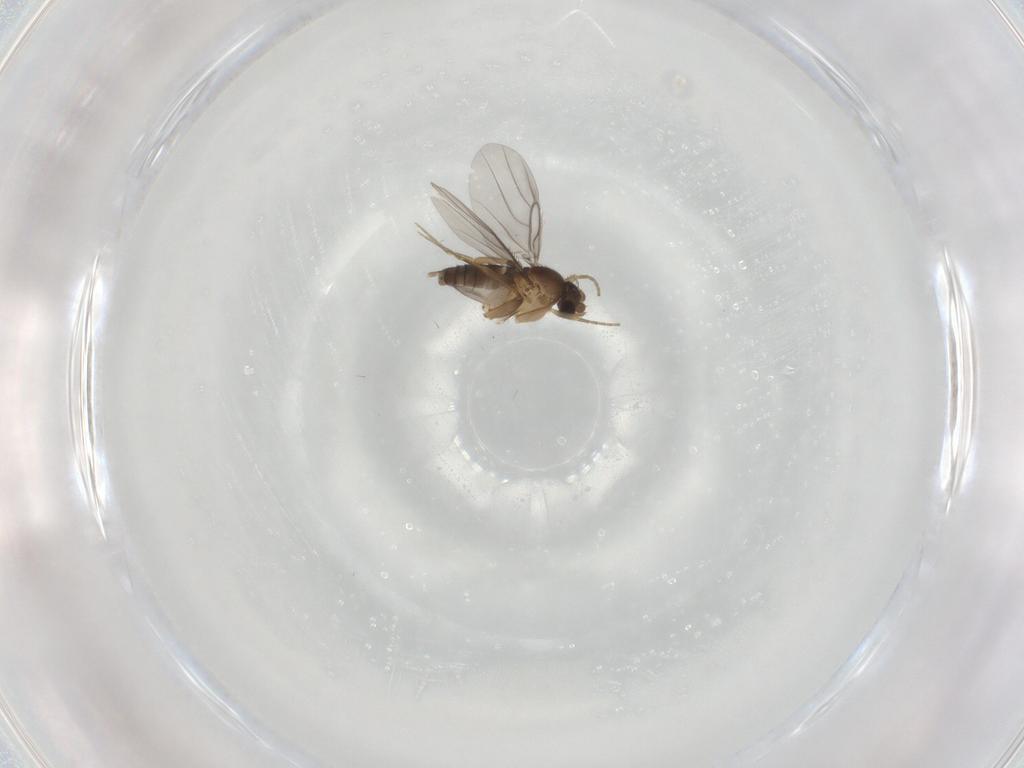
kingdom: Animalia
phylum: Arthropoda
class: Insecta
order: Diptera
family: Phoridae
